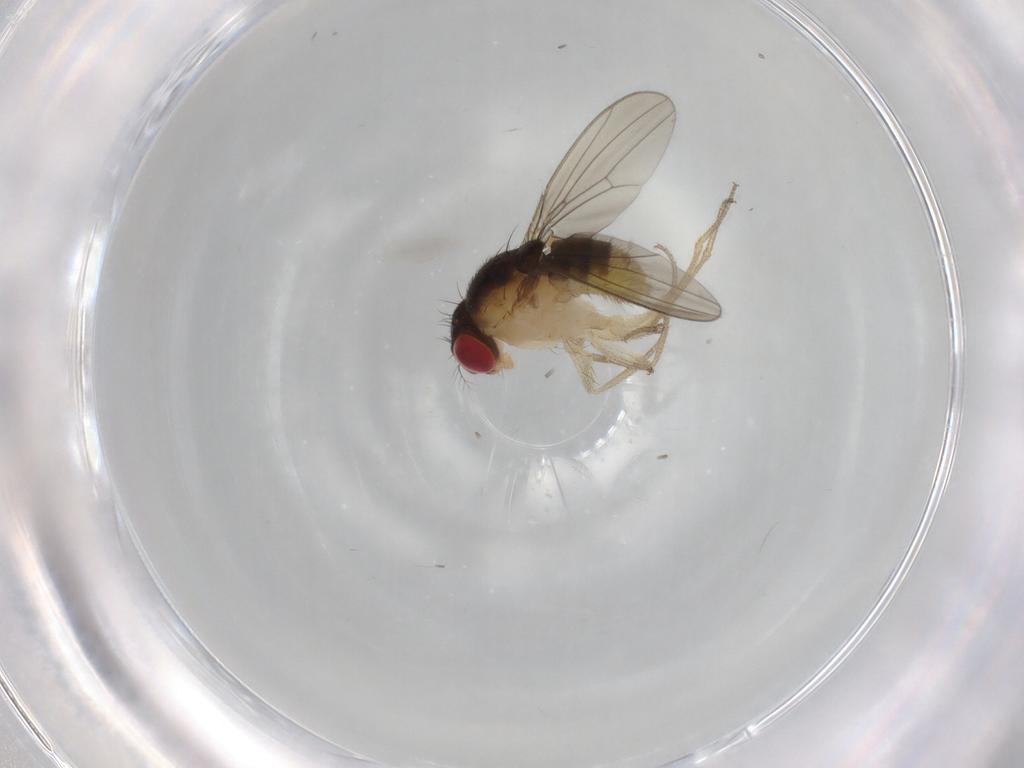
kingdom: Animalia
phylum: Arthropoda
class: Insecta
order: Diptera
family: Drosophilidae
